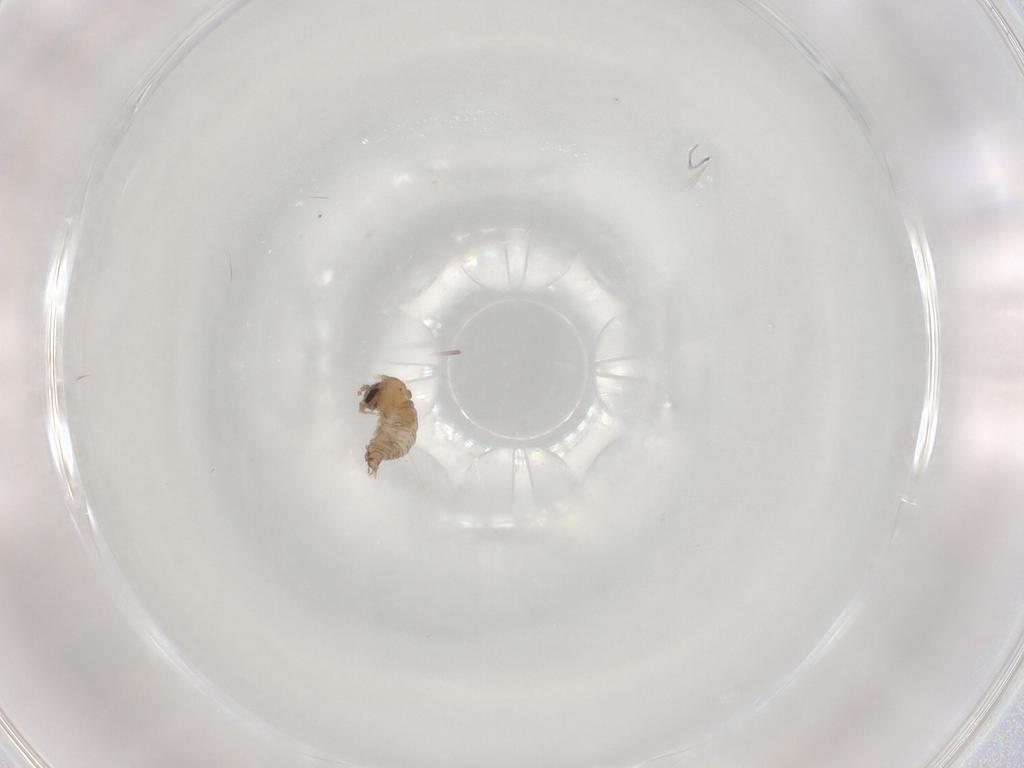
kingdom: Animalia
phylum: Arthropoda
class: Insecta
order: Diptera
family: Psychodidae
